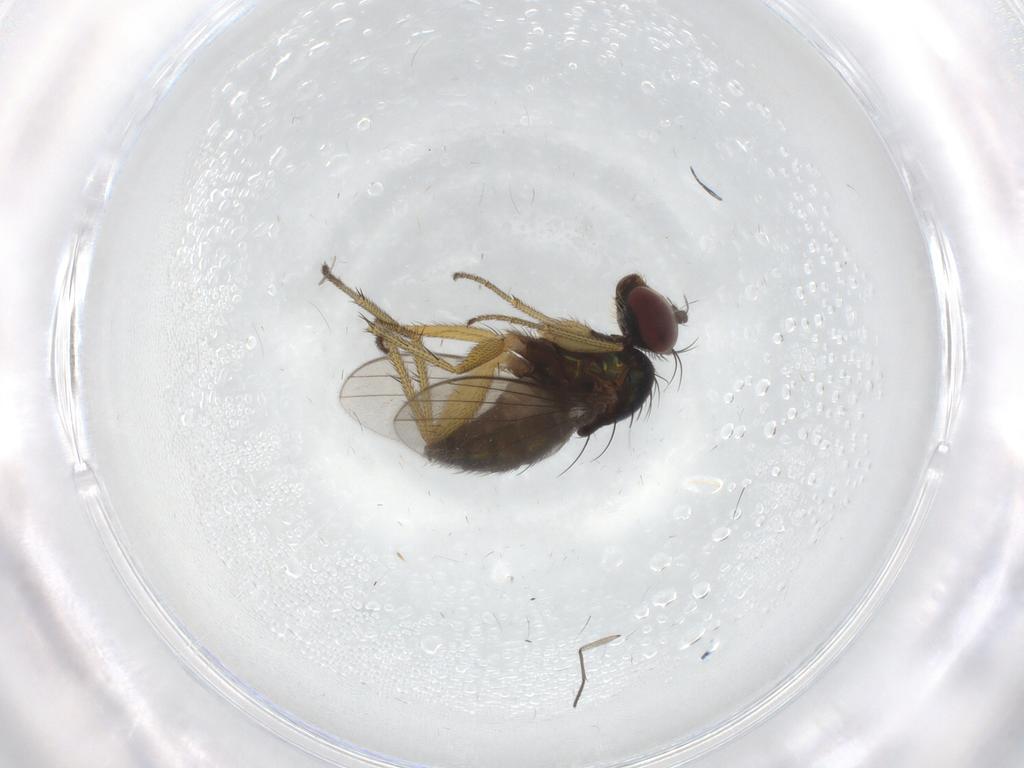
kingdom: Animalia
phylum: Arthropoda
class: Insecta
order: Diptera
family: Dolichopodidae
